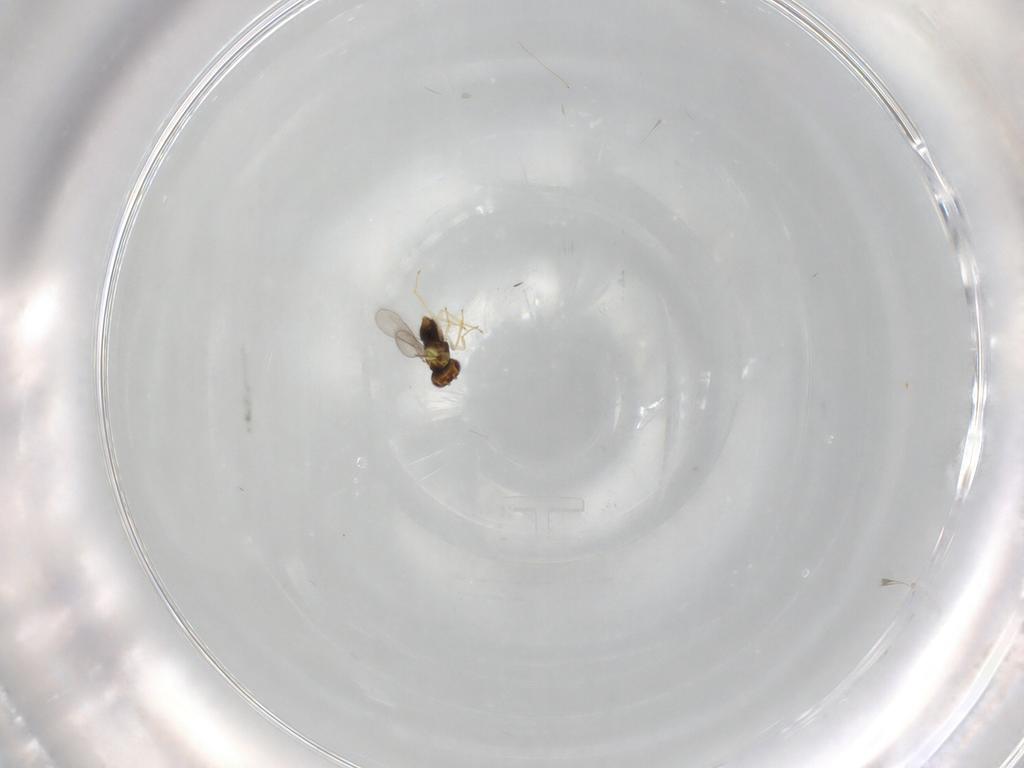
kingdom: Animalia
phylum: Arthropoda
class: Insecta
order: Hymenoptera
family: Aphelinidae
